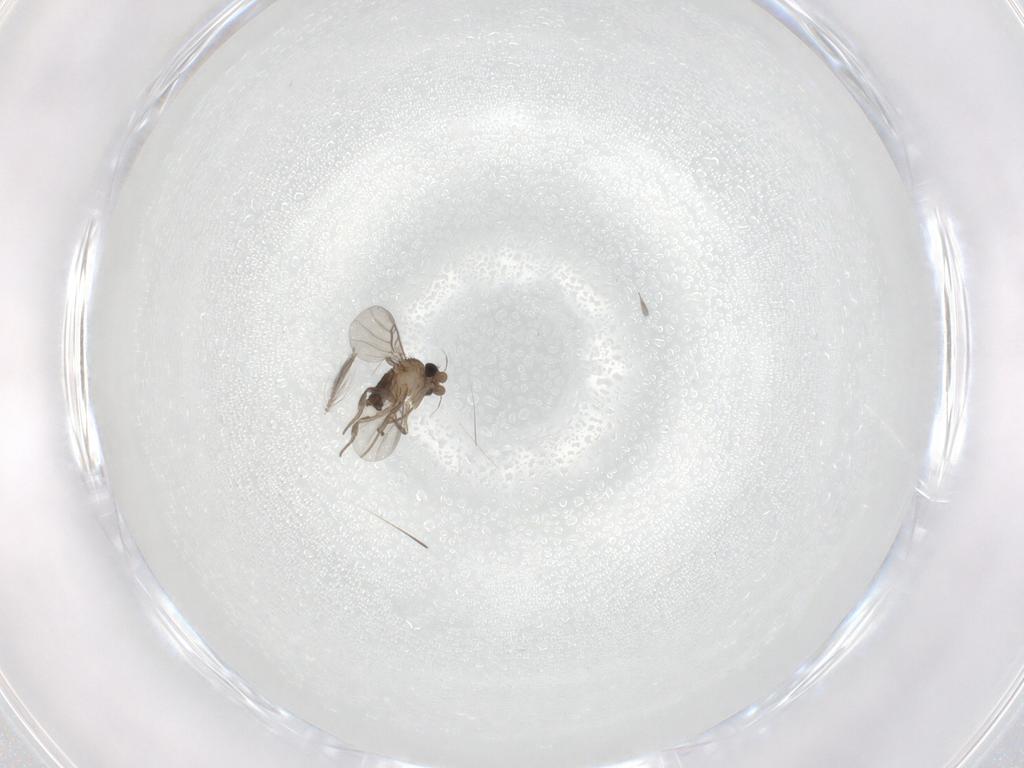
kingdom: Animalia
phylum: Arthropoda
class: Insecta
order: Diptera
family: Ceratopogonidae
